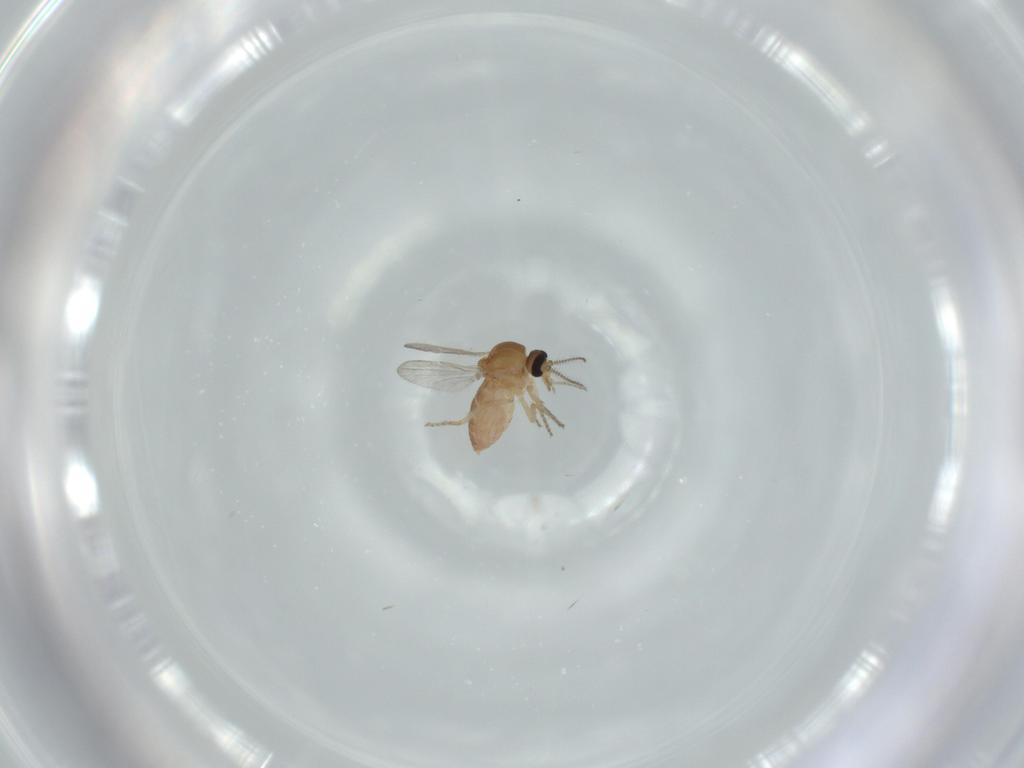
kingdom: Animalia
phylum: Arthropoda
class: Insecta
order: Diptera
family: Ceratopogonidae
